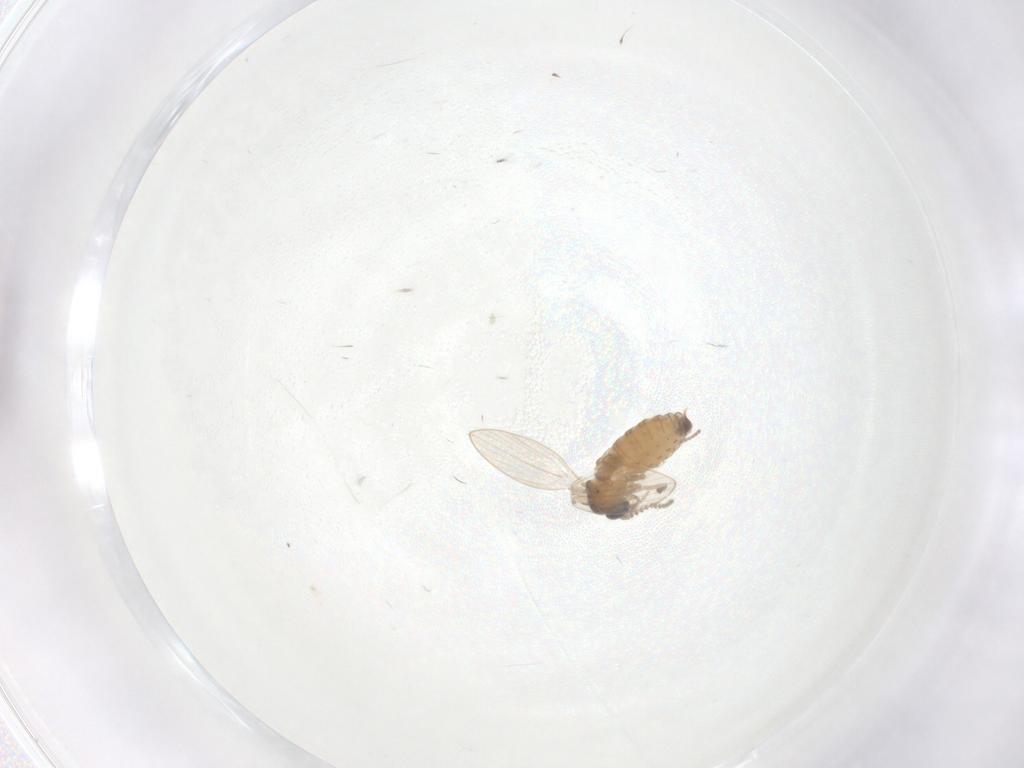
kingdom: Animalia
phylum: Arthropoda
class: Insecta
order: Diptera
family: Psychodidae
